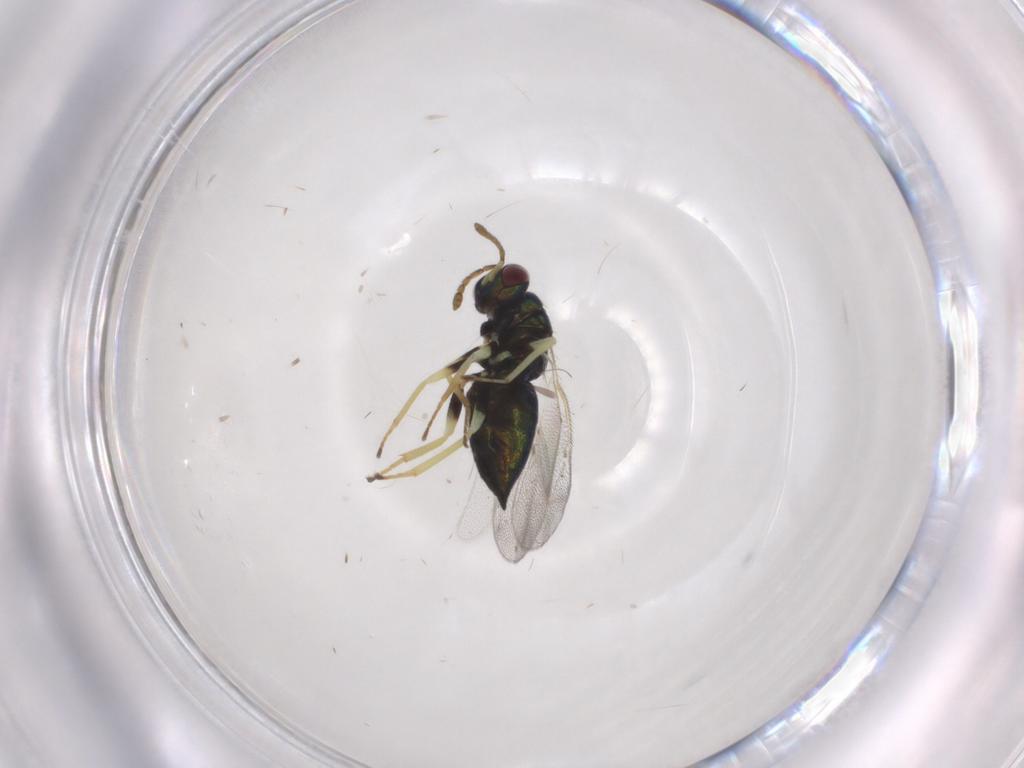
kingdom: Animalia
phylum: Arthropoda
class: Insecta
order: Hymenoptera
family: Eulophidae
